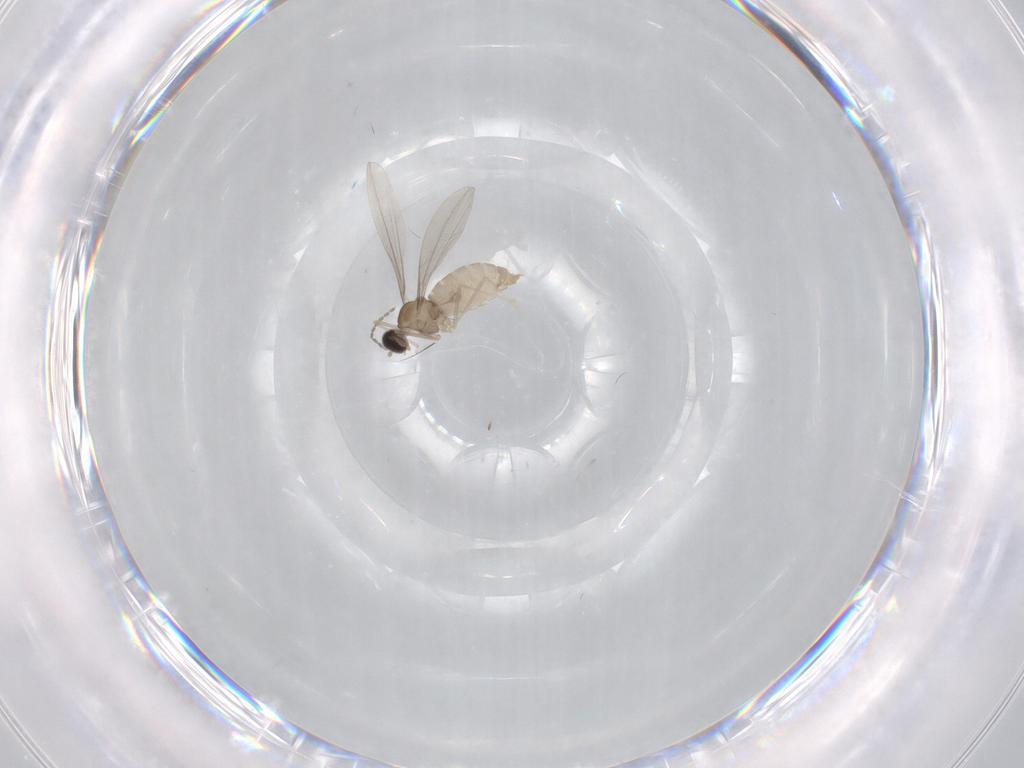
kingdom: Animalia
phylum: Arthropoda
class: Insecta
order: Diptera
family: Cecidomyiidae
